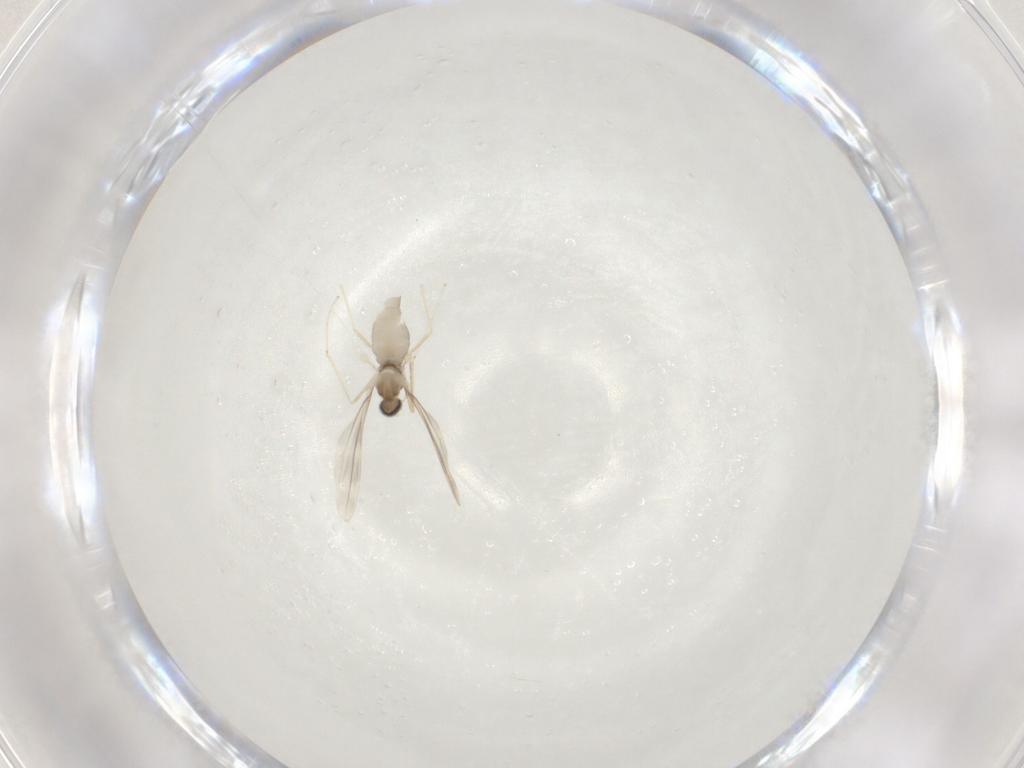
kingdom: Animalia
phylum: Arthropoda
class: Insecta
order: Diptera
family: Cecidomyiidae
